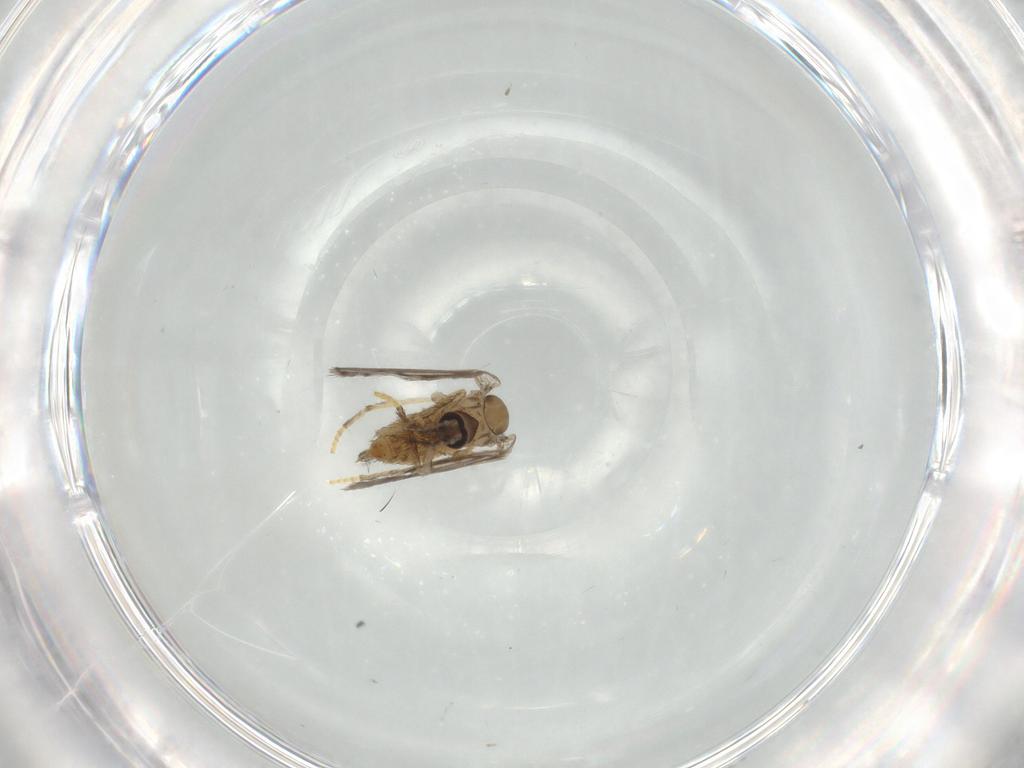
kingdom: Animalia
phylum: Arthropoda
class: Insecta
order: Diptera
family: Psychodidae
